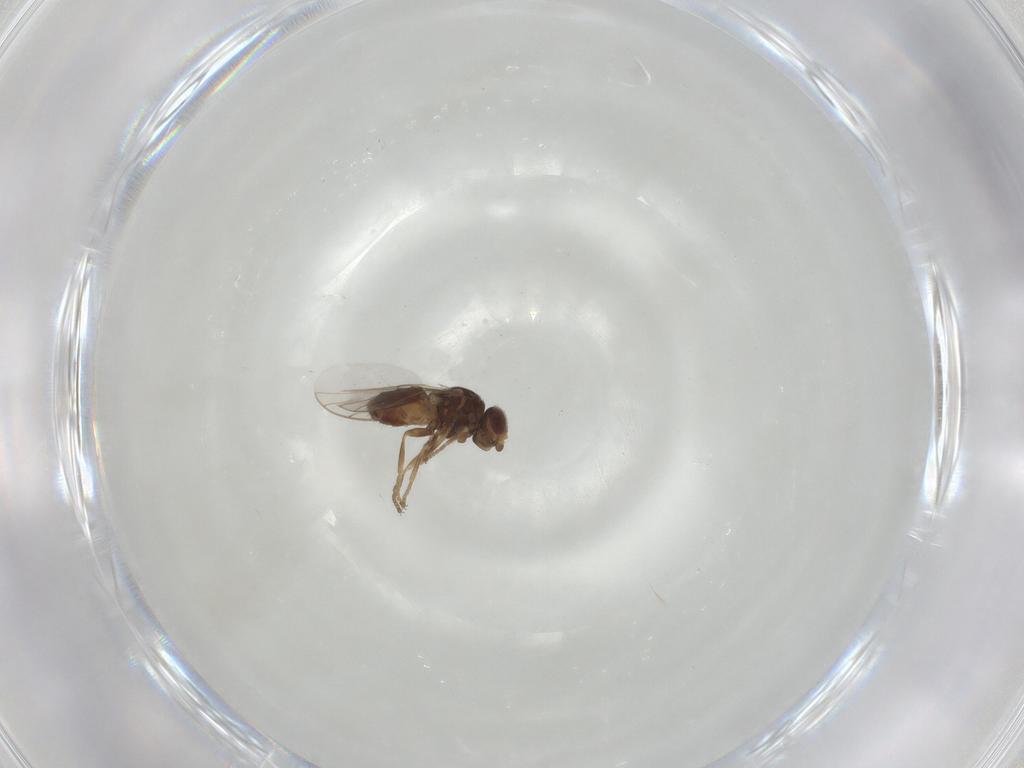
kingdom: Animalia
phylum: Arthropoda
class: Insecta
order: Diptera
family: Chloropidae
